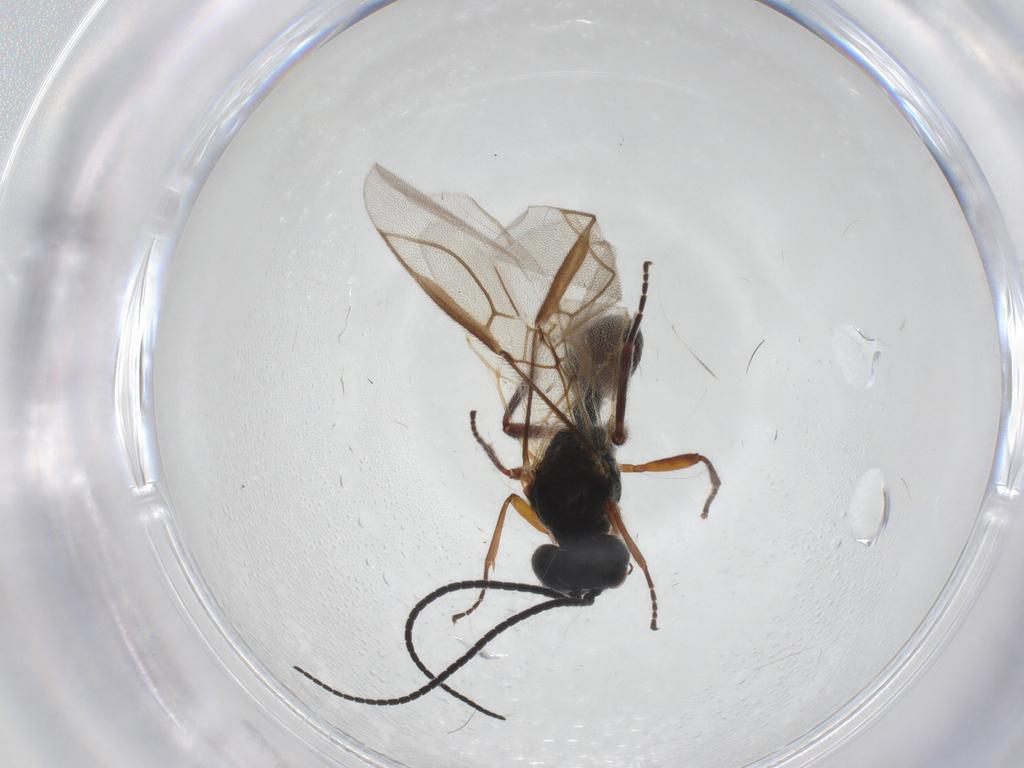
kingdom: Animalia
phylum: Arthropoda
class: Insecta
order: Hymenoptera
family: Braconidae
